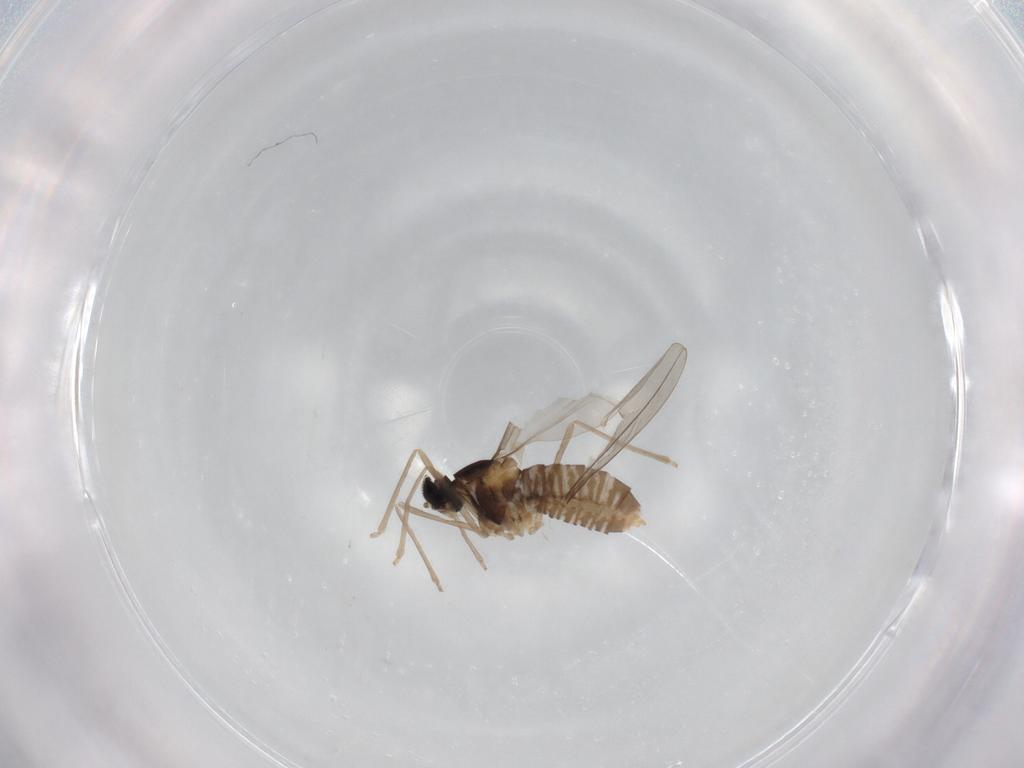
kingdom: Animalia
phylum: Arthropoda
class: Insecta
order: Diptera
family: Cecidomyiidae
